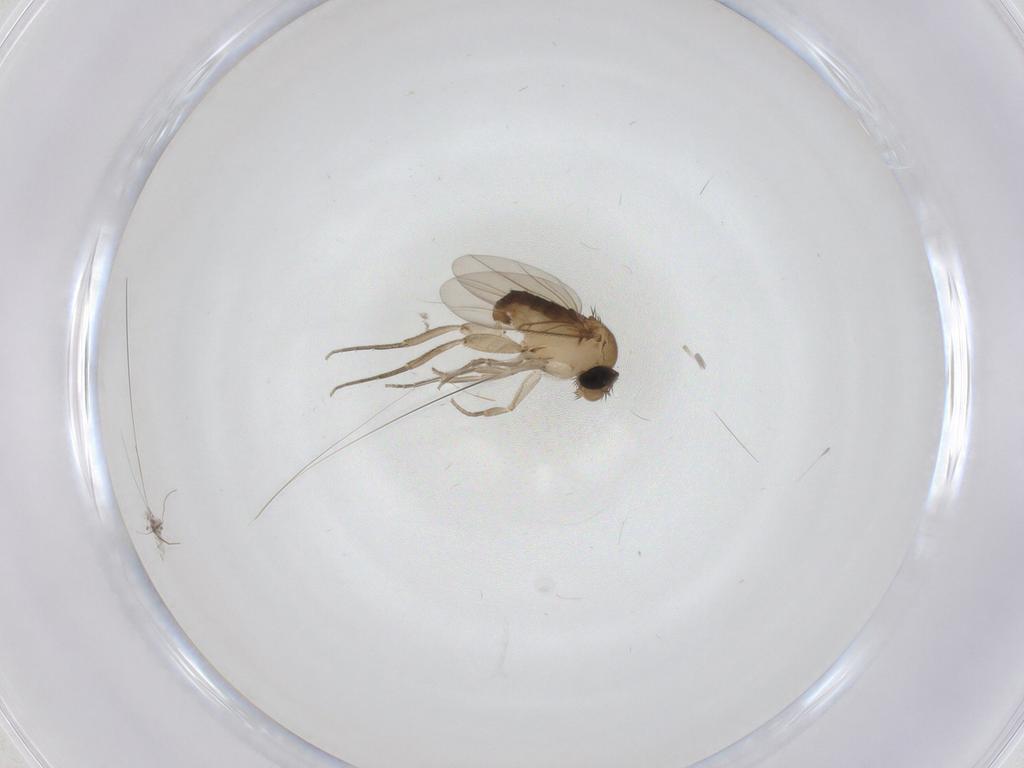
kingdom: Animalia
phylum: Arthropoda
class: Insecta
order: Diptera
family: Phoridae
